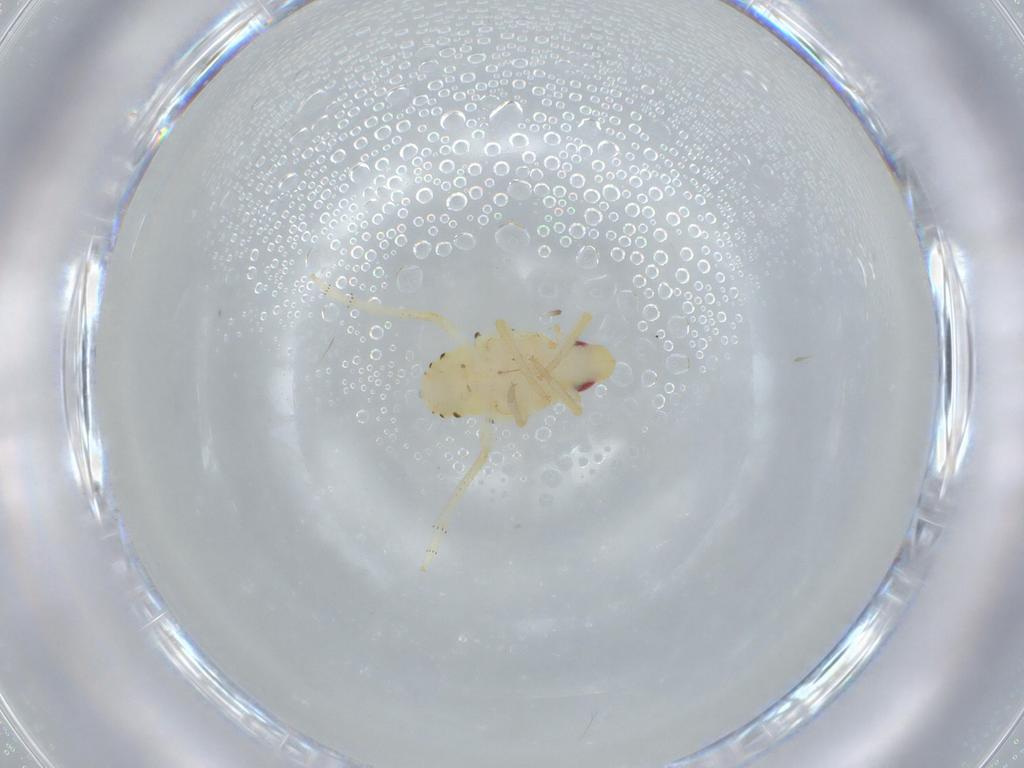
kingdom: Animalia
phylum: Arthropoda
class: Insecta
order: Hemiptera
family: Tropiduchidae
